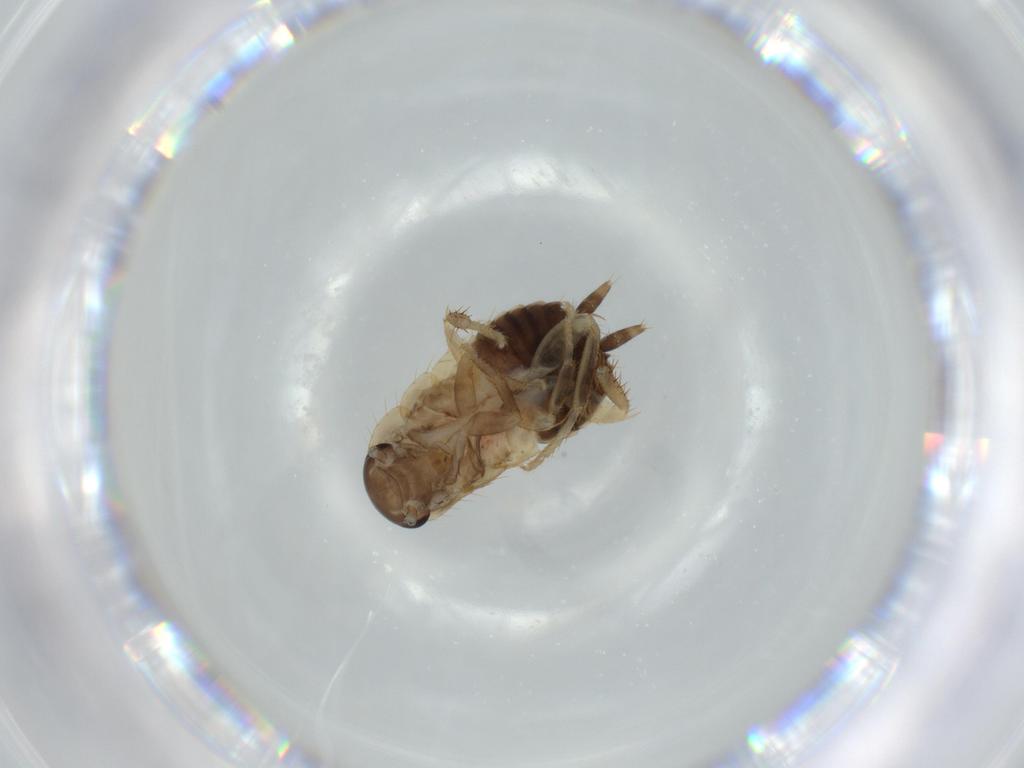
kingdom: Animalia
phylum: Arthropoda
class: Insecta
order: Blattodea
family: Ectobiidae
